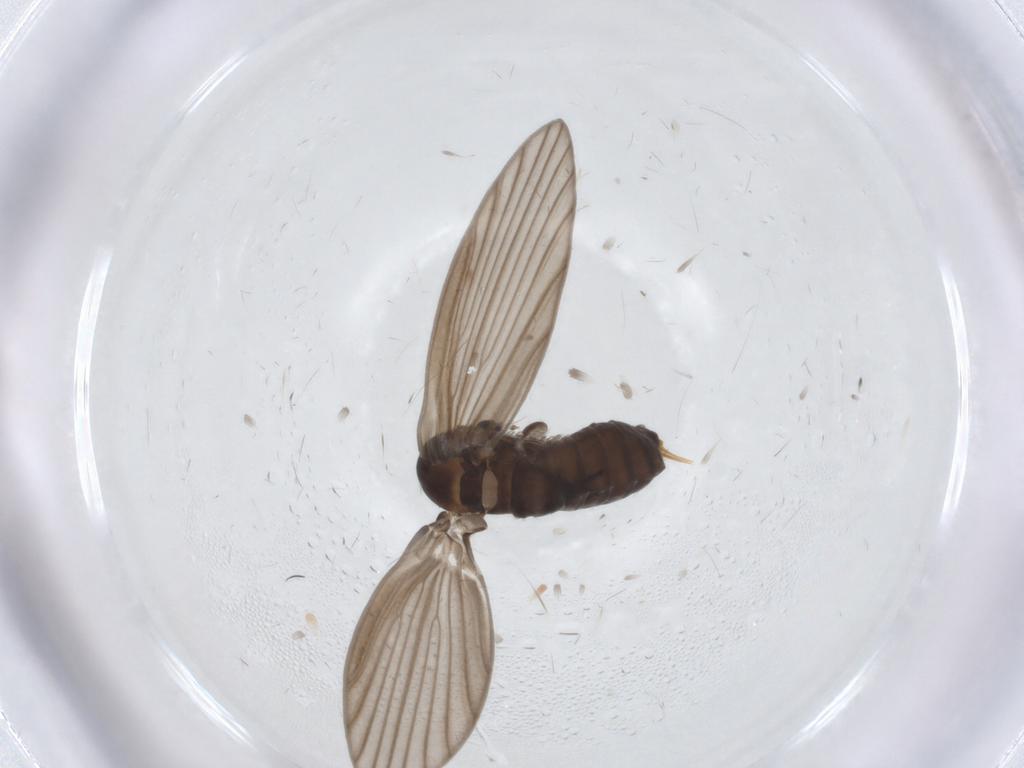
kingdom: Animalia
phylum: Arthropoda
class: Insecta
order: Diptera
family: Psychodidae
